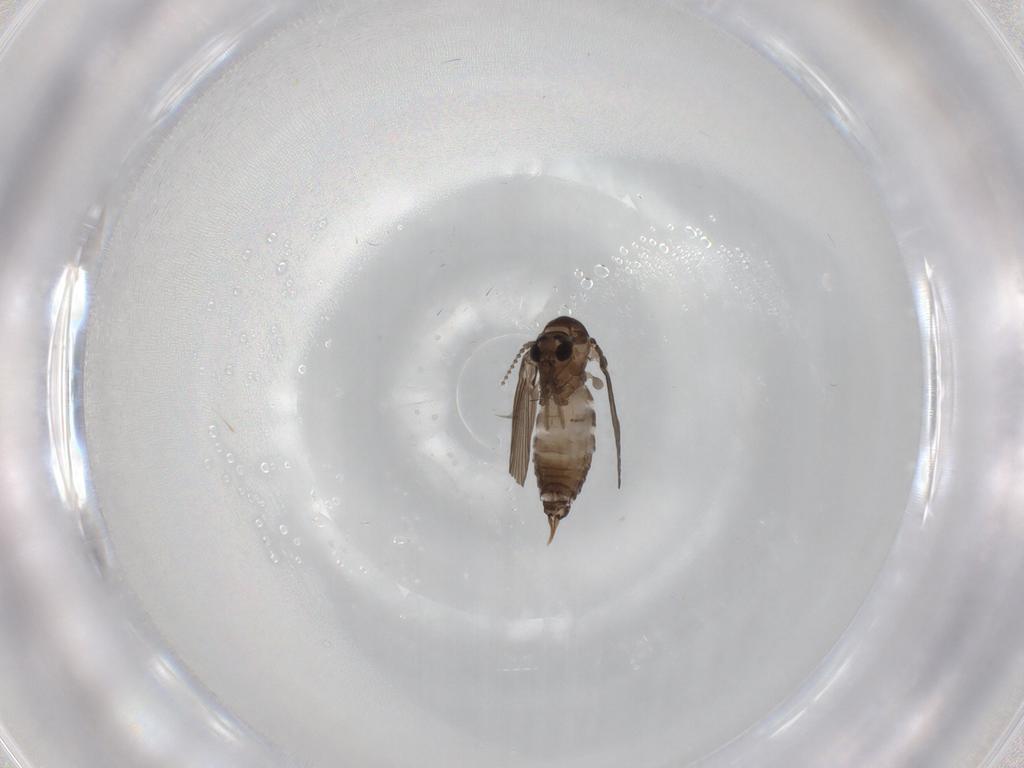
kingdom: Animalia
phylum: Arthropoda
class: Insecta
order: Diptera
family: Psychodidae
